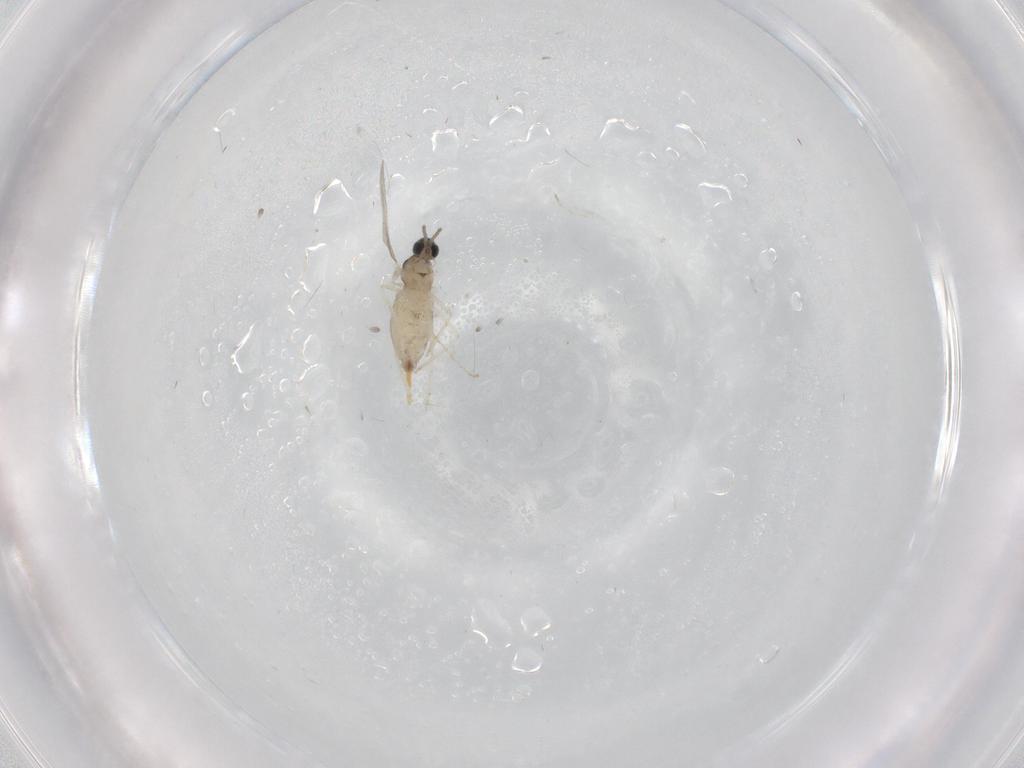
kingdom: Animalia
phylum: Arthropoda
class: Insecta
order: Diptera
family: Cecidomyiidae
